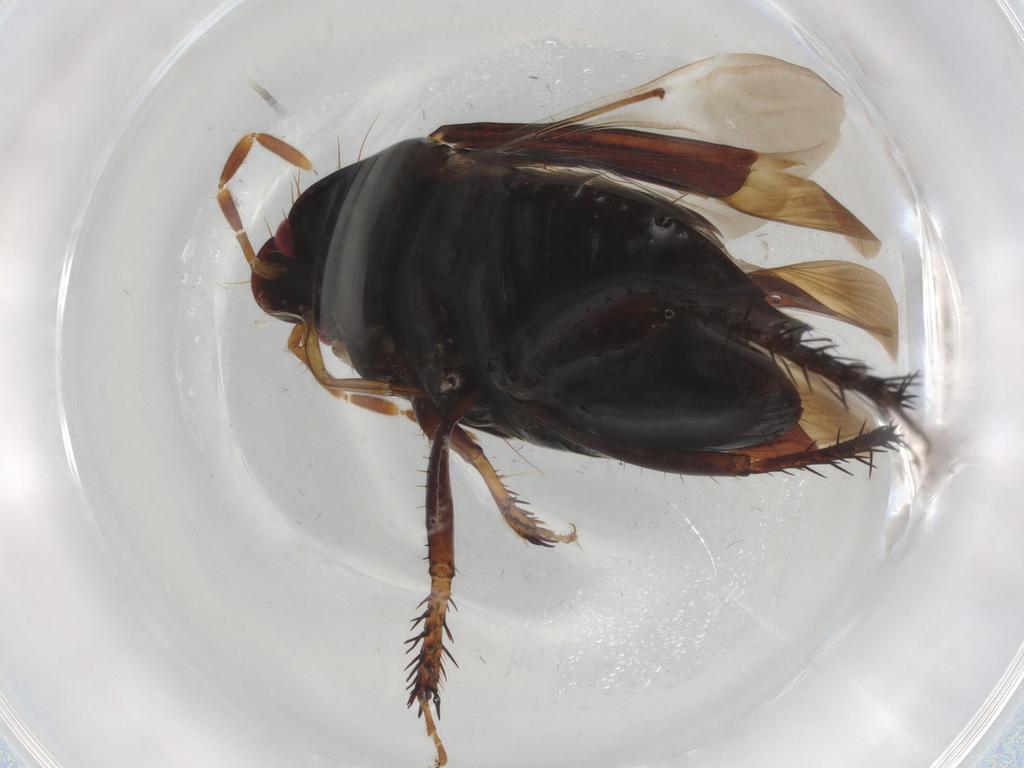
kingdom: Animalia
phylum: Arthropoda
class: Insecta
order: Hemiptera
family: Cydnidae
